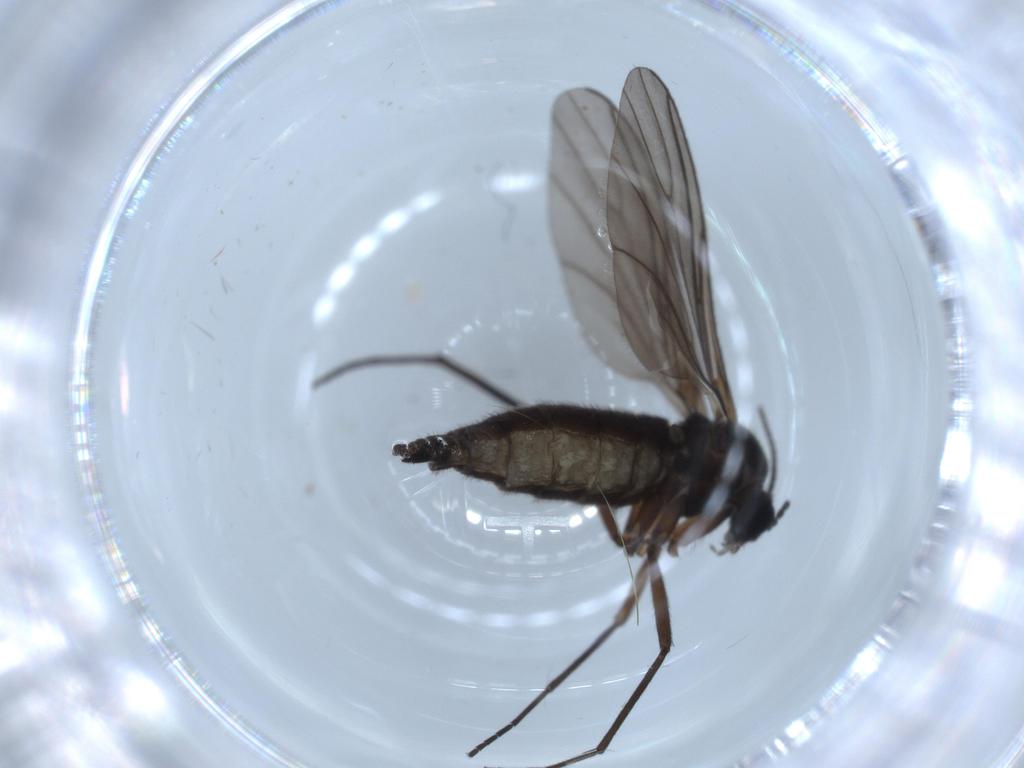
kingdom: Animalia
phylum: Arthropoda
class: Insecta
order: Diptera
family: Sciaridae
